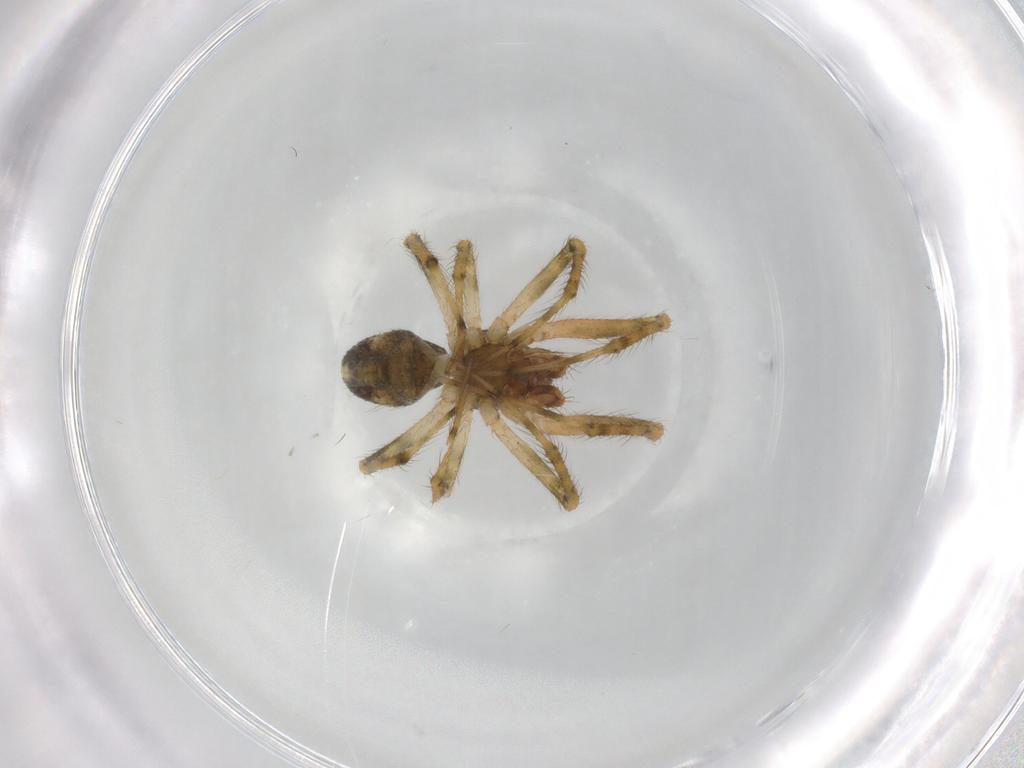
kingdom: Animalia
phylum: Arthropoda
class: Arachnida
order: Araneae
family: Theridiidae
